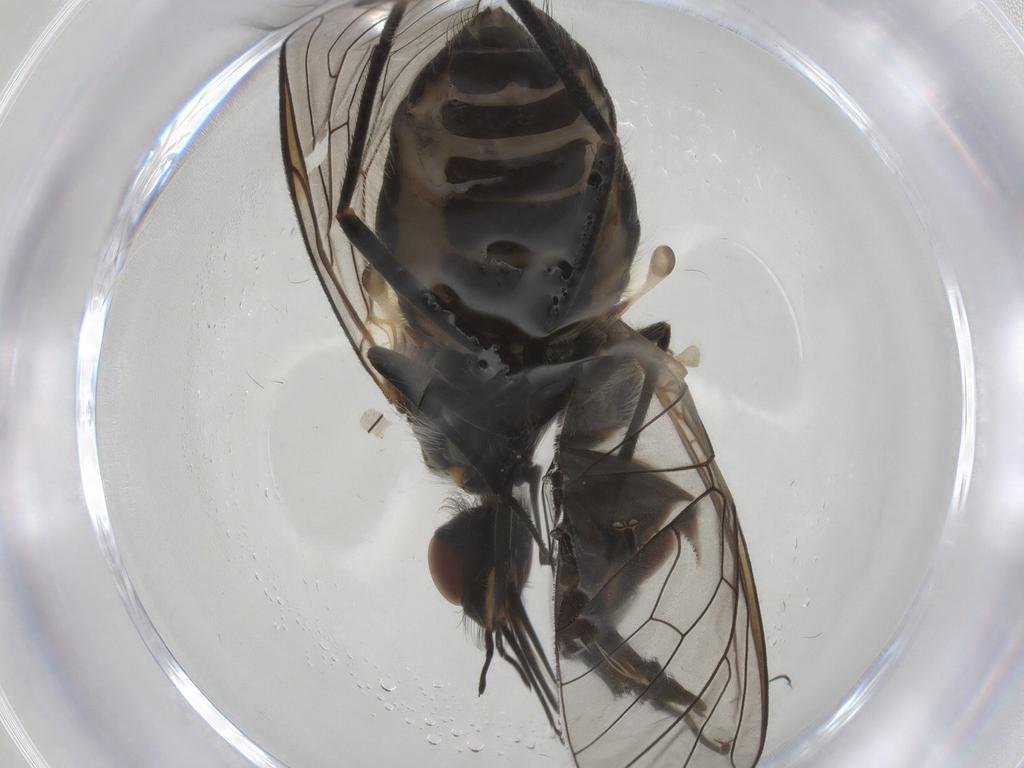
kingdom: Animalia
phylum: Arthropoda
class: Insecta
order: Diptera
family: Bombyliidae
